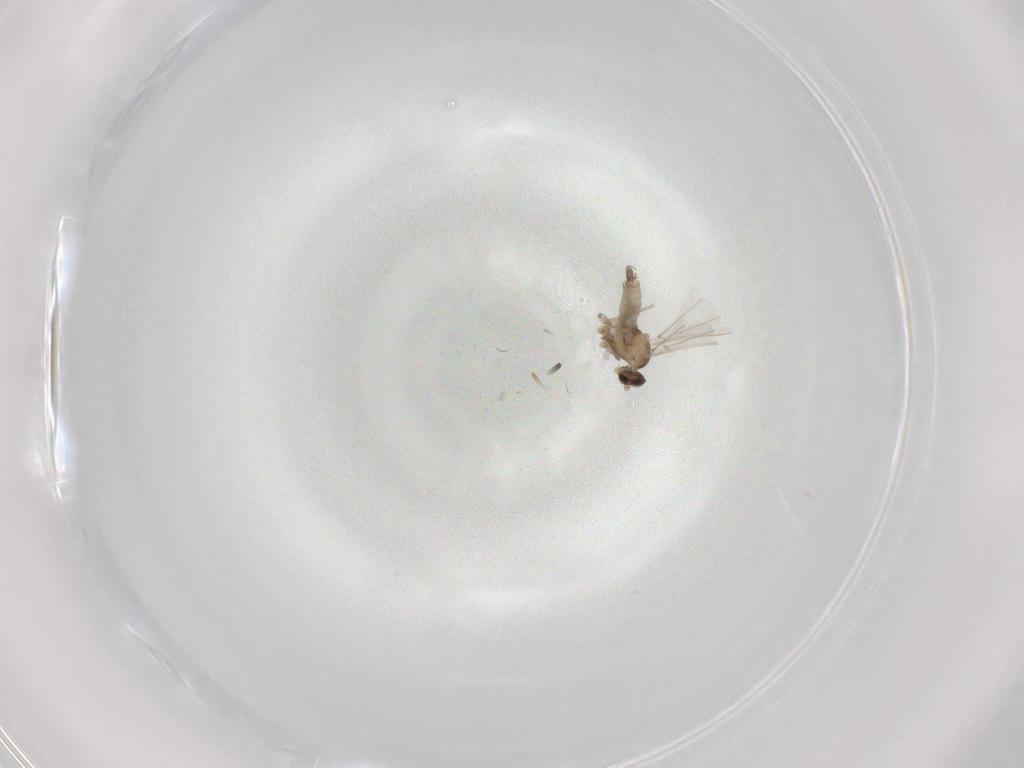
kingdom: Animalia
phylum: Arthropoda
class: Insecta
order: Diptera
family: Cecidomyiidae
